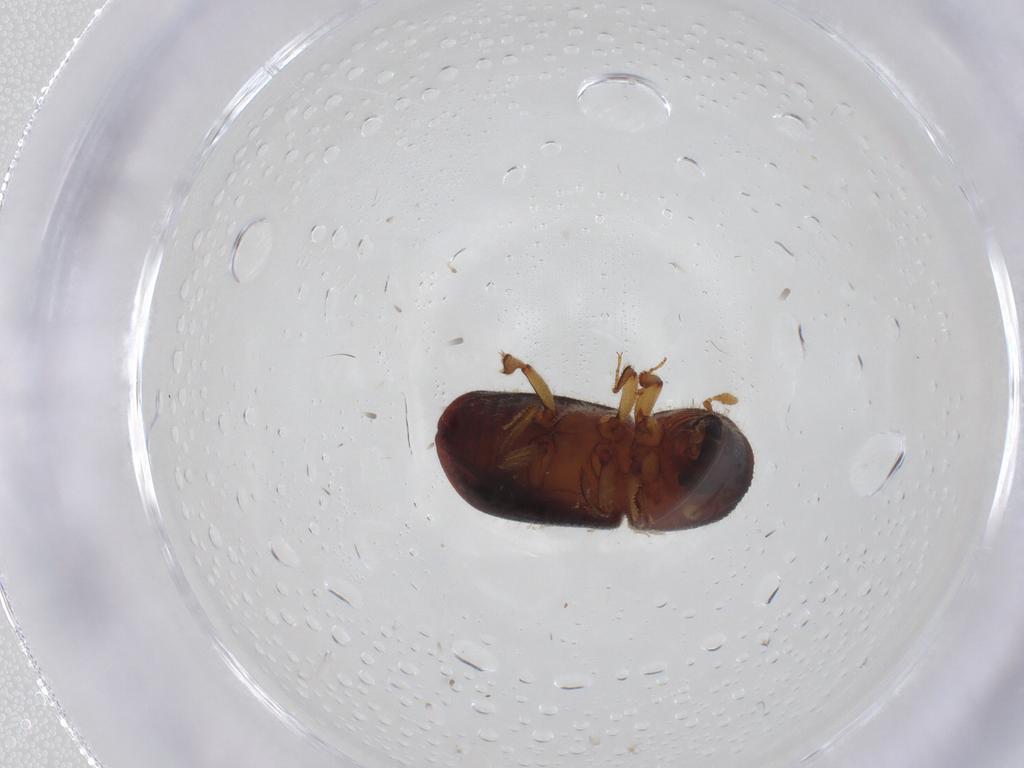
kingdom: Animalia
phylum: Arthropoda
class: Insecta
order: Coleoptera
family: Curculionidae
